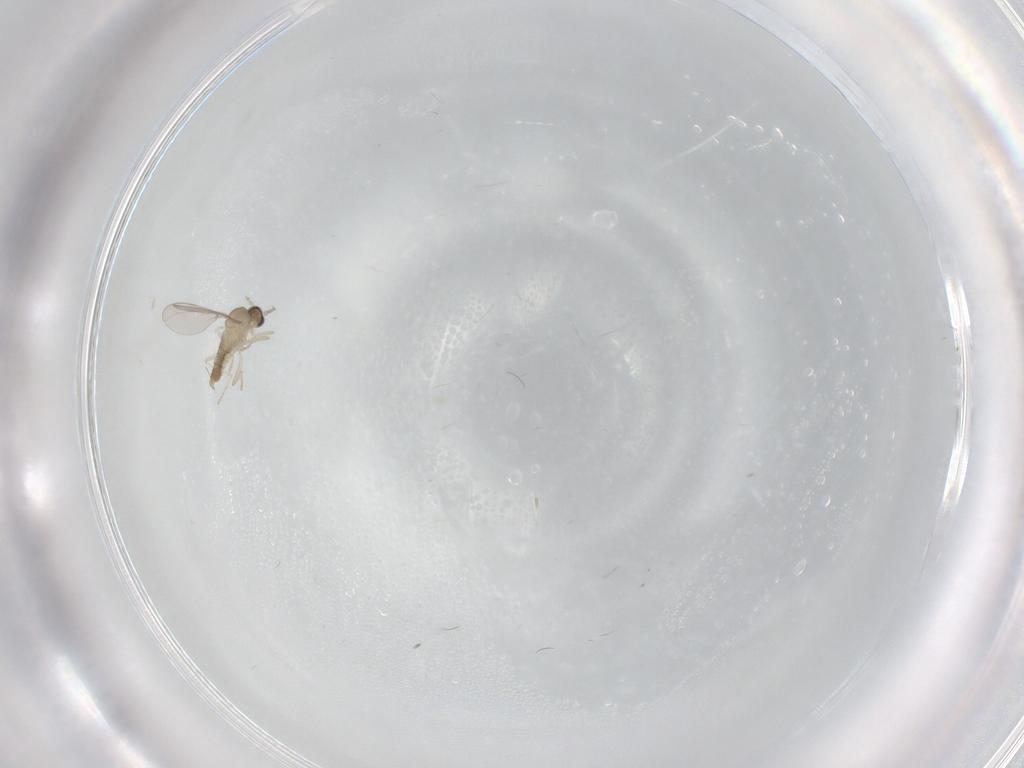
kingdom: Animalia
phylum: Arthropoda
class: Insecta
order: Diptera
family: Cecidomyiidae
